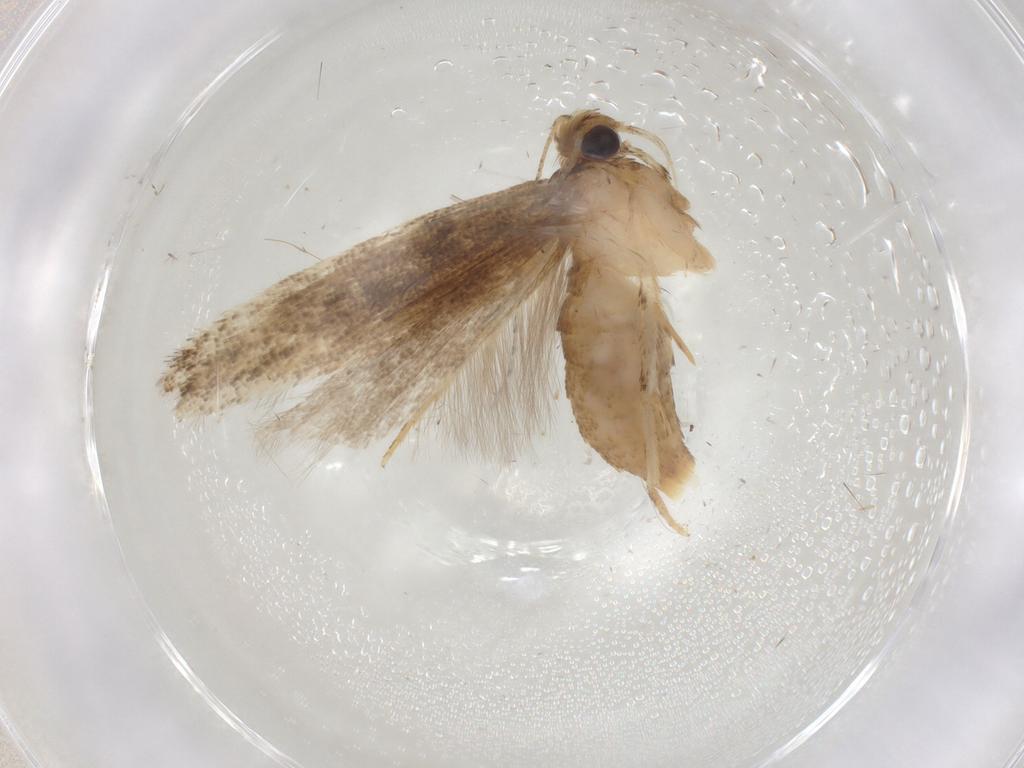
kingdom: Animalia
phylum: Arthropoda
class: Insecta
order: Lepidoptera
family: Gelechiidae
